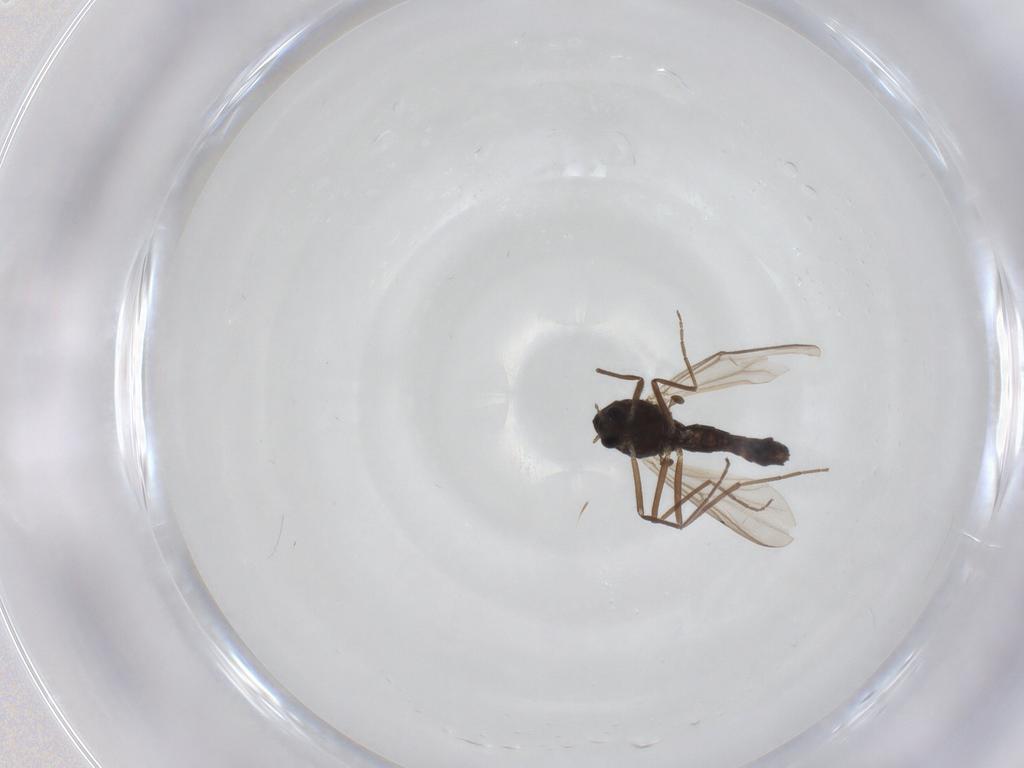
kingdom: Animalia
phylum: Arthropoda
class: Insecta
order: Diptera
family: Chironomidae
